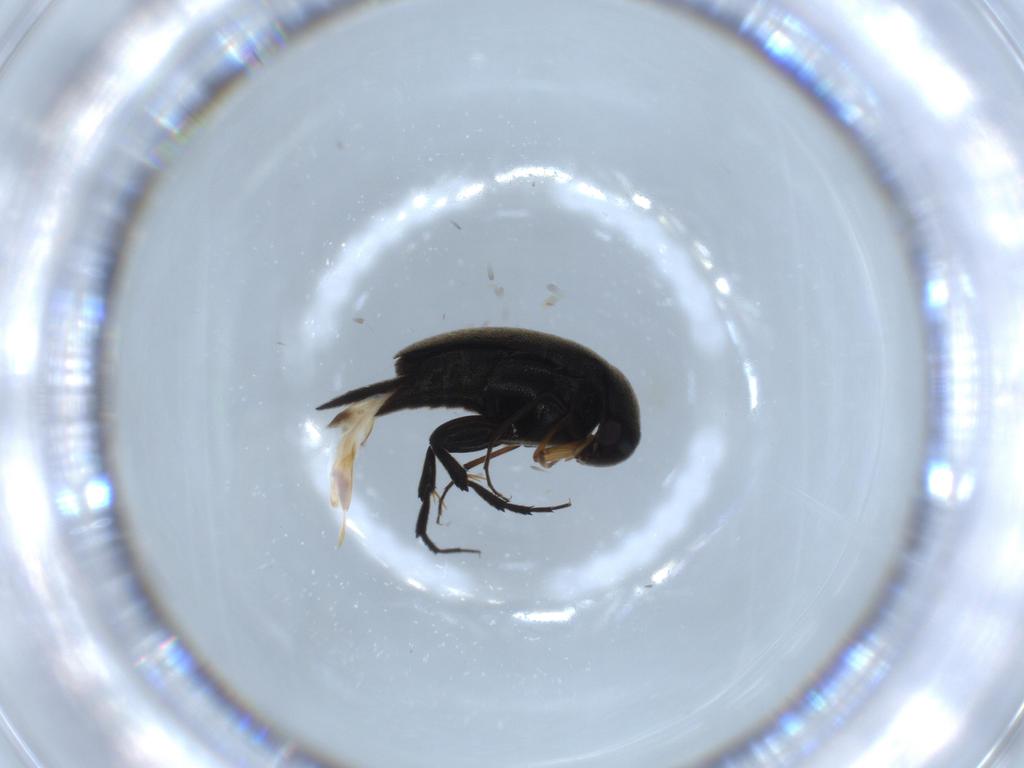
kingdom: Animalia
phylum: Arthropoda
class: Insecta
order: Coleoptera
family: Mordellidae
